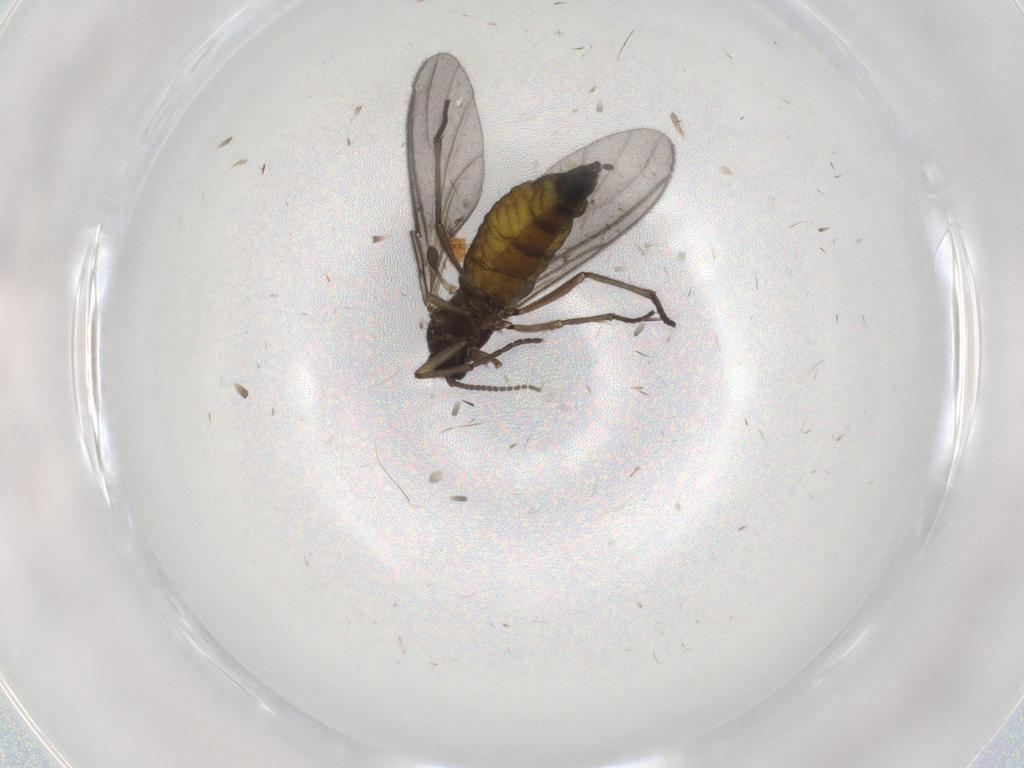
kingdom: Animalia
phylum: Arthropoda
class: Insecta
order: Diptera
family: Sciaridae
